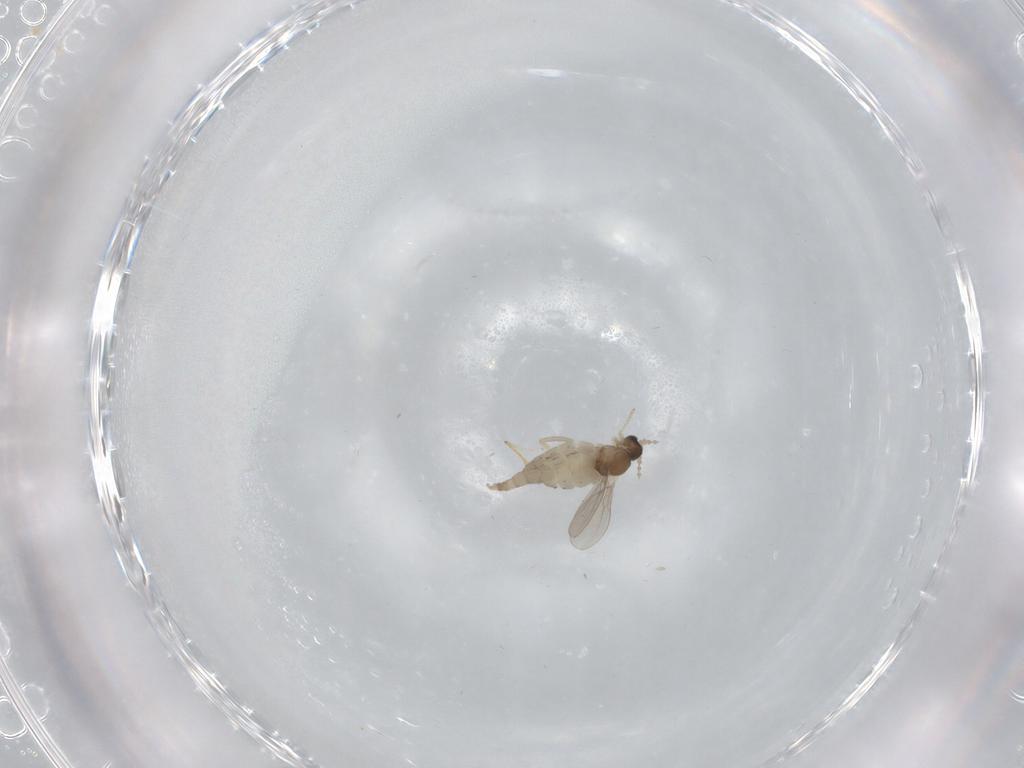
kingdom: Animalia
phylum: Arthropoda
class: Insecta
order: Diptera
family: Cecidomyiidae
